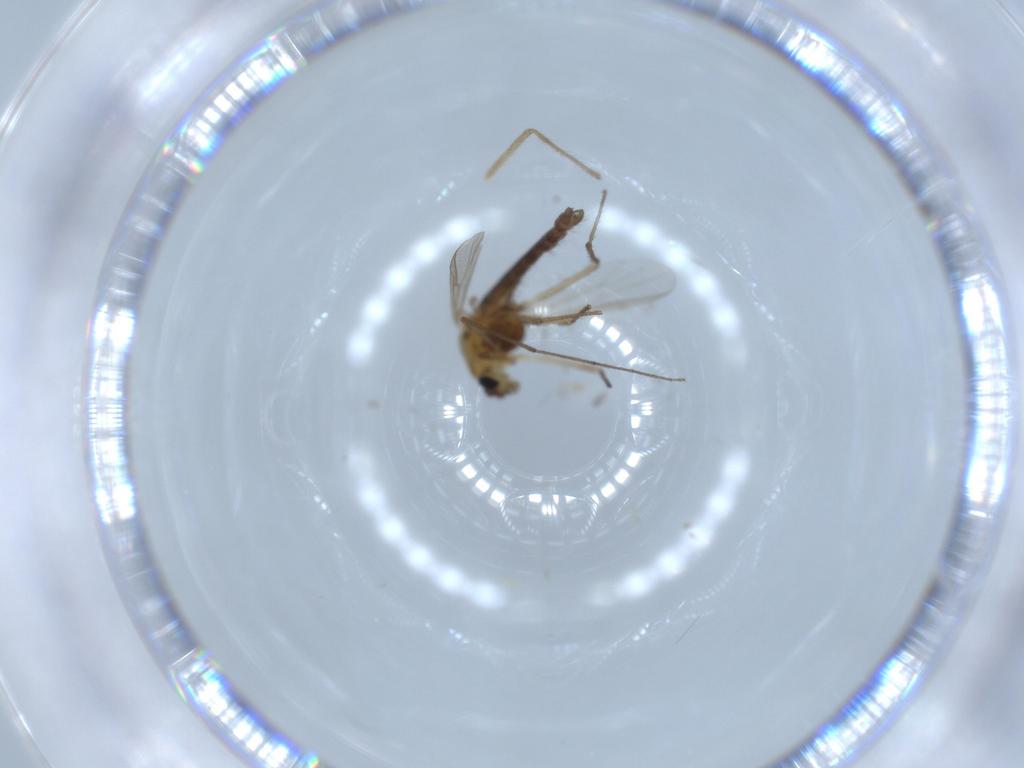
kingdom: Animalia
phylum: Arthropoda
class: Insecta
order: Diptera
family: Chironomidae
